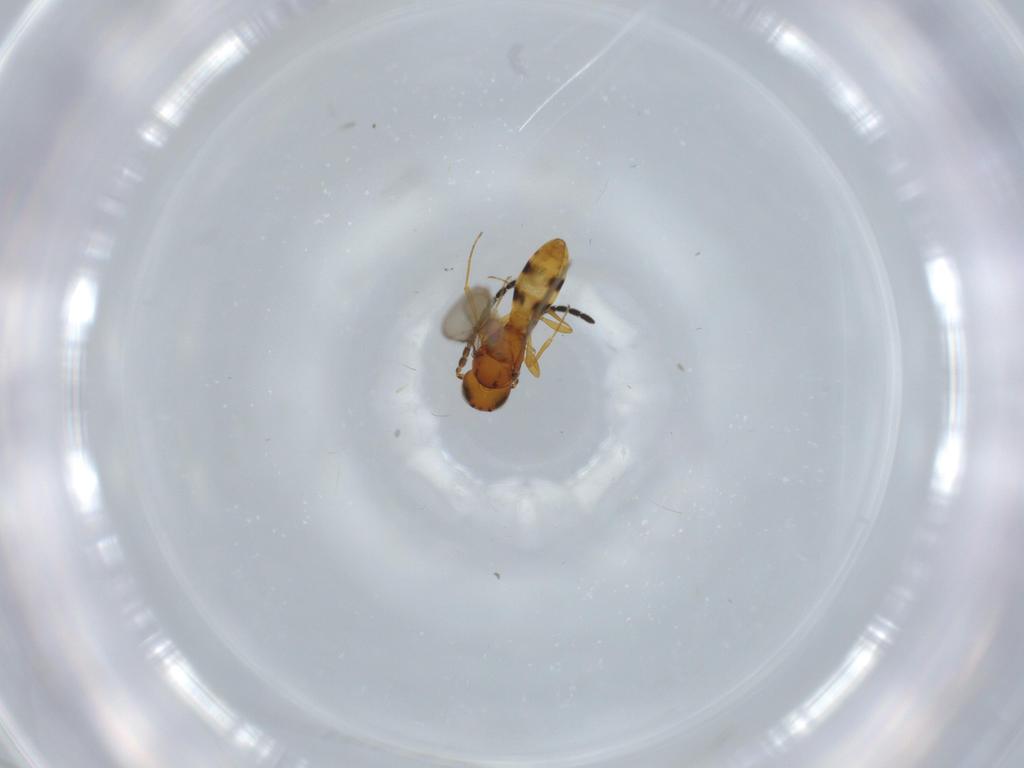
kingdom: Animalia
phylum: Arthropoda
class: Insecta
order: Hymenoptera
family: Scelionidae
